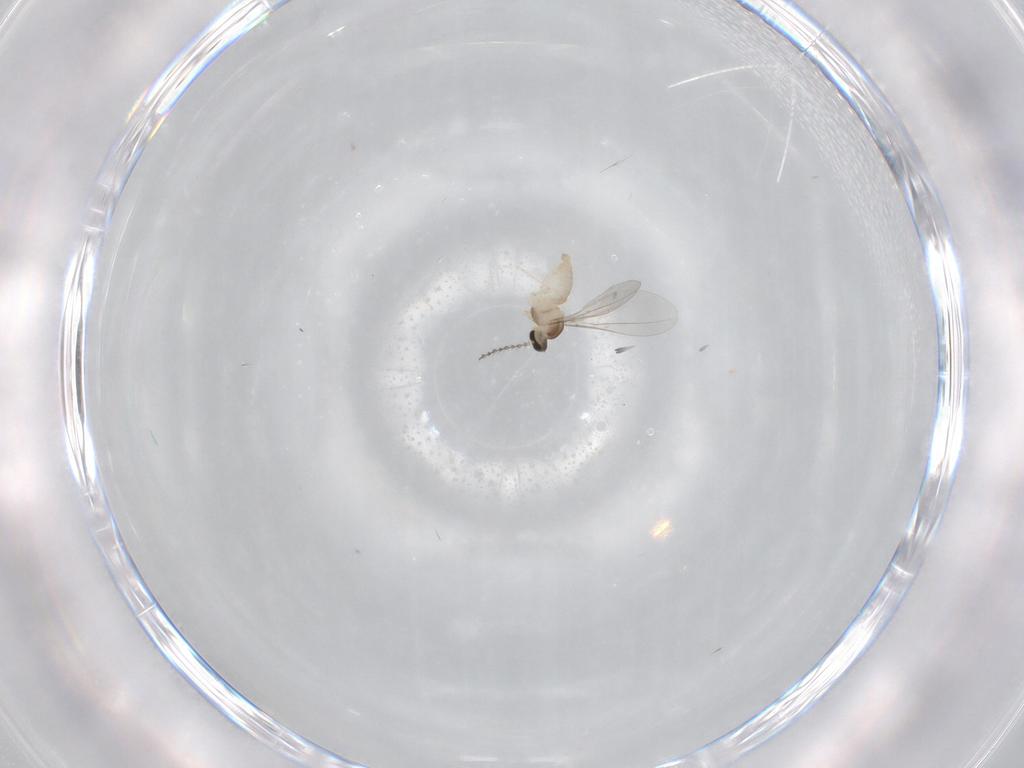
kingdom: Animalia
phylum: Arthropoda
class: Insecta
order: Diptera
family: Cecidomyiidae
